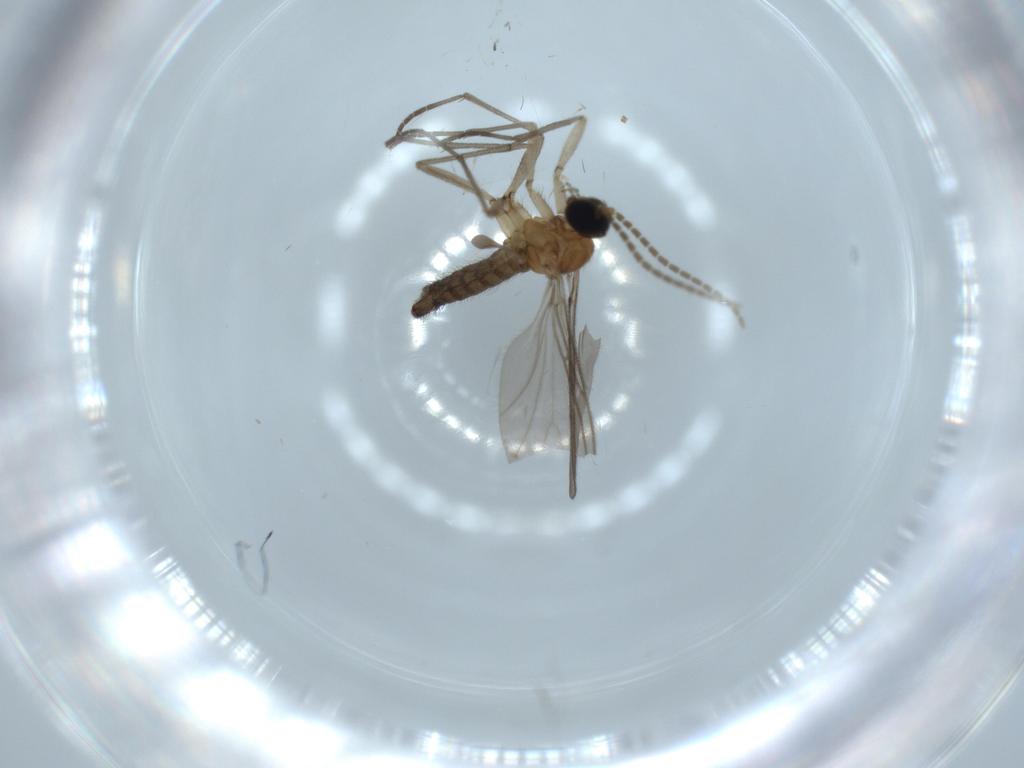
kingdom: Animalia
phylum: Arthropoda
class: Insecta
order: Diptera
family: Sciaridae
